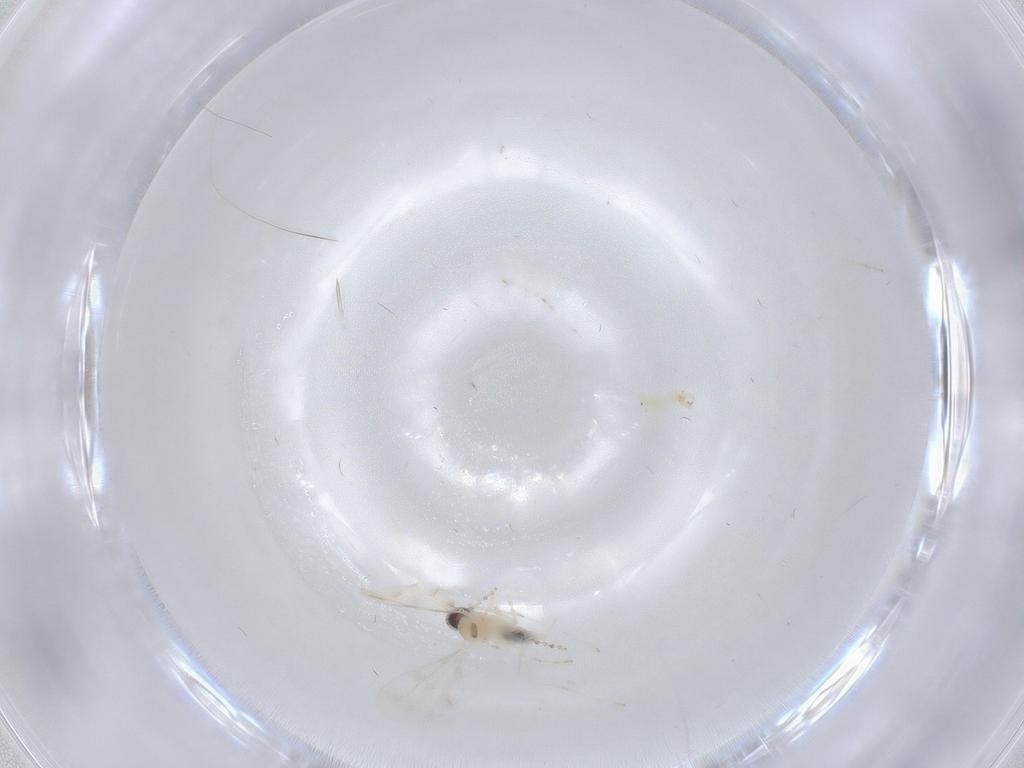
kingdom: Animalia
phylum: Arthropoda
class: Insecta
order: Diptera
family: Cecidomyiidae
